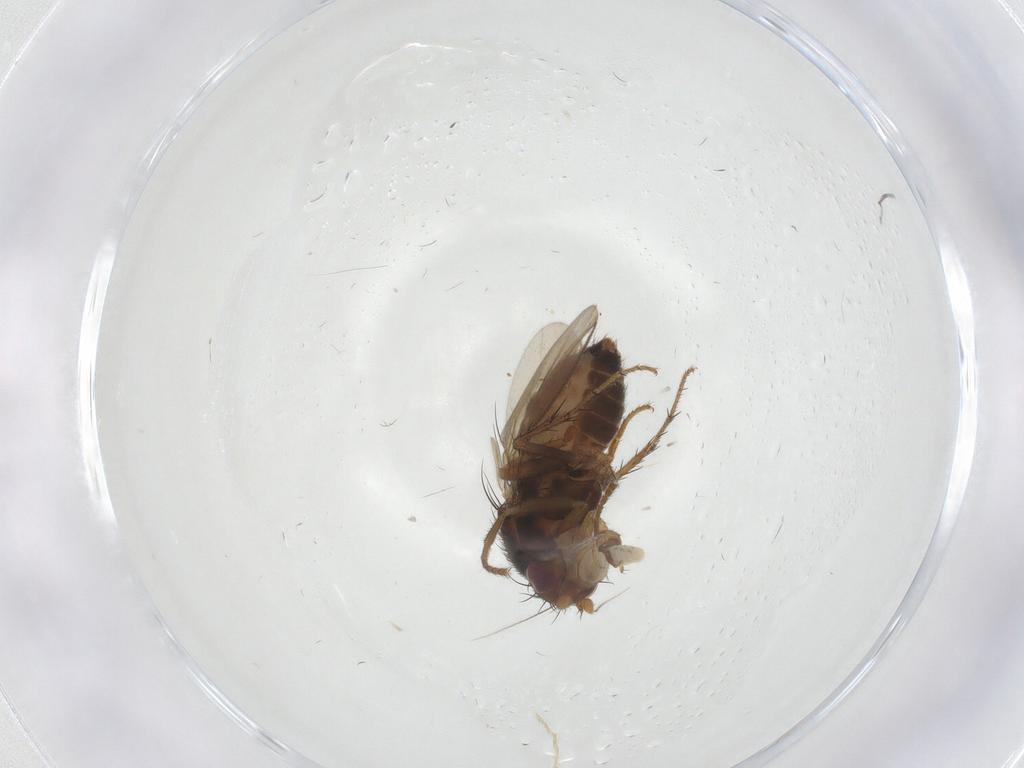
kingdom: Animalia
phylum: Arthropoda
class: Insecta
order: Diptera
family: Sphaeroceridae
